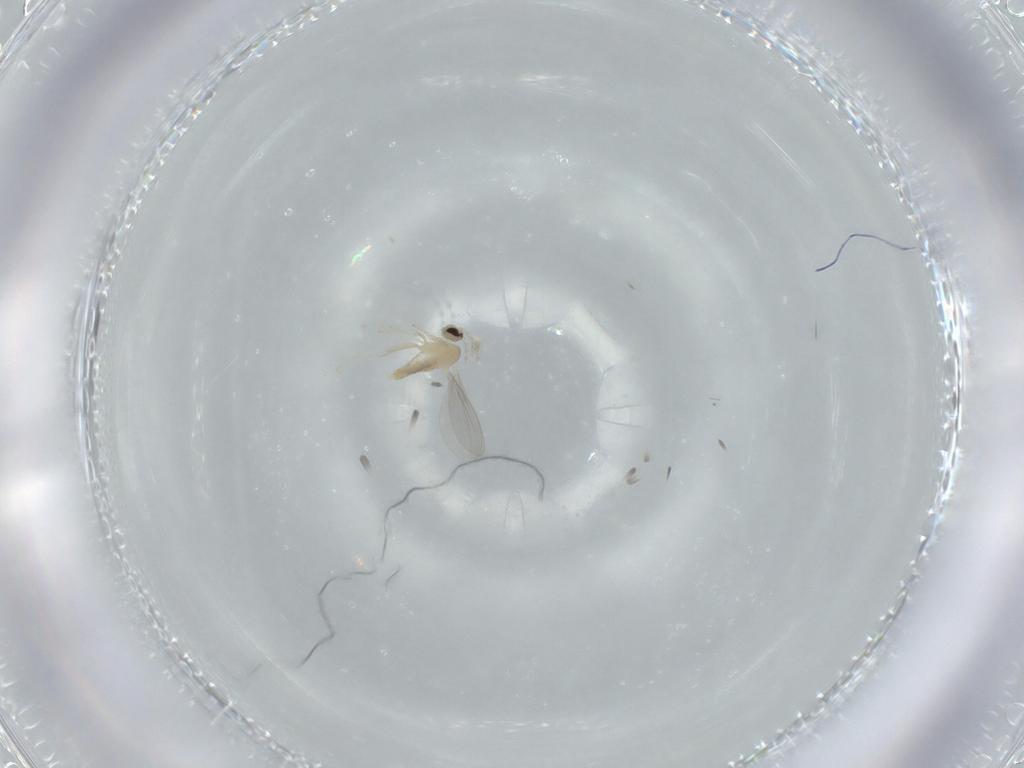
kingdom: Animalia
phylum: Arthropoda
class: Insecta
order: Diptera
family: Cecidomyiidae
